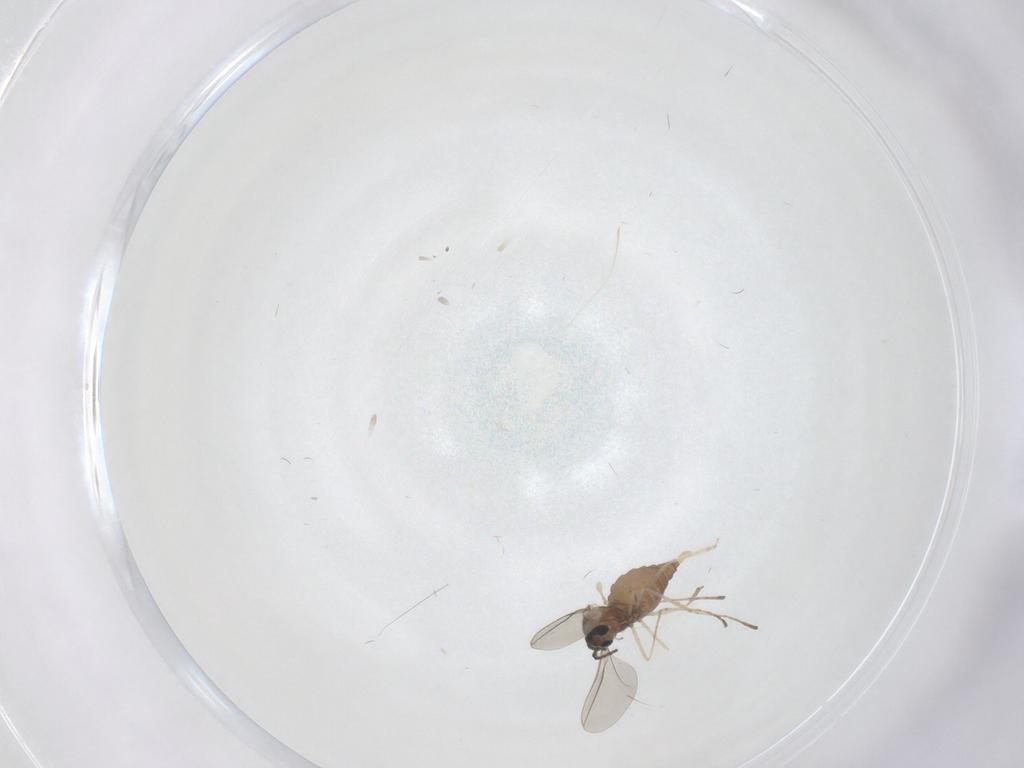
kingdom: Animalia
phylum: Arthropoda
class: Insecta
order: Diptera
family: Cecidomyiidae
